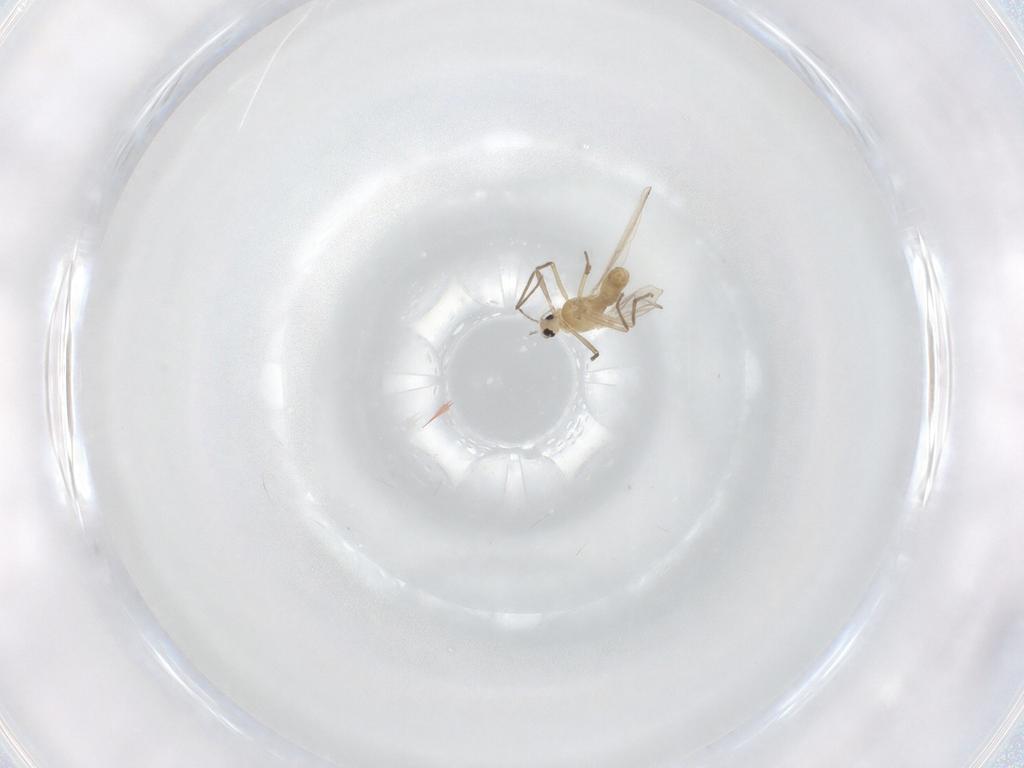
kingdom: Animalia
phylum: Arthropoda
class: Insecta
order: Diptera
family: Chironomidae
